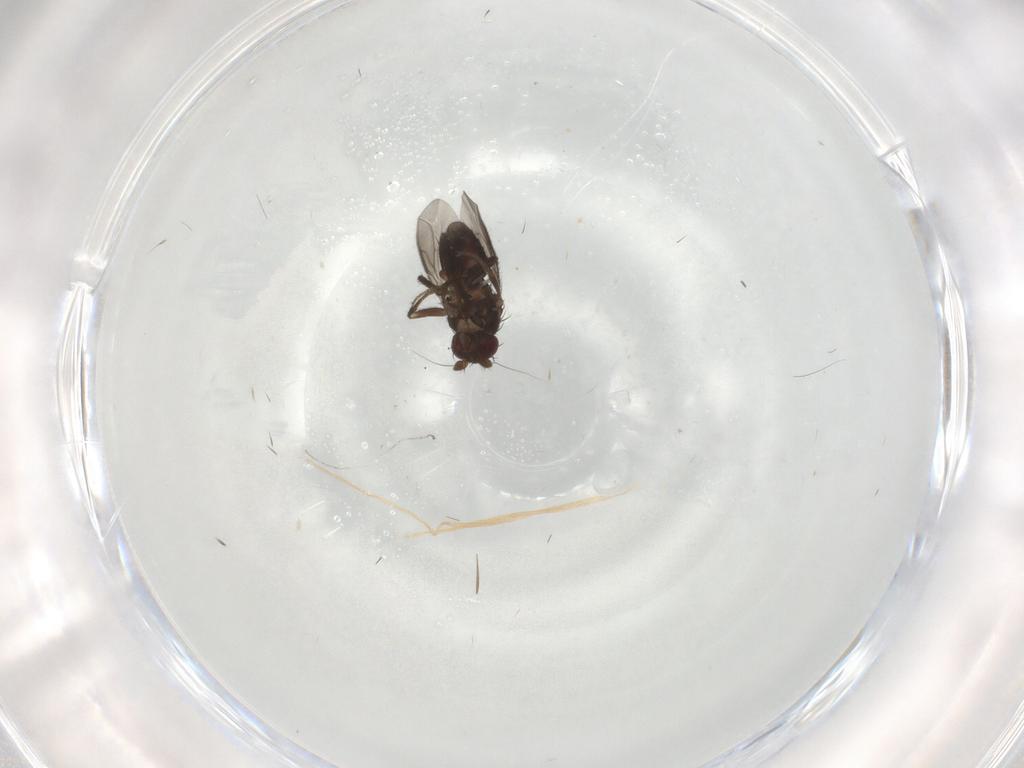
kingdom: Animalia
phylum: Arthropoda
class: Insecta
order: Diptera
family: Sphaeroceridae
